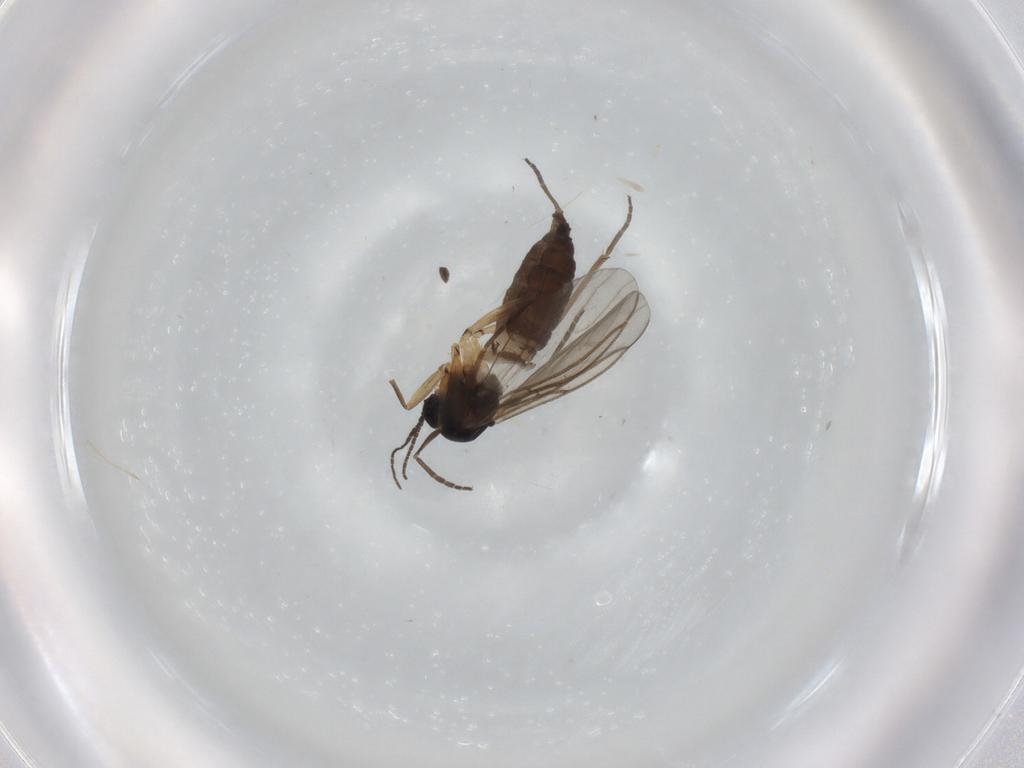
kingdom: Animalia
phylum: Arthropoda
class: Insecta
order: Diptera
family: Sciaridae
